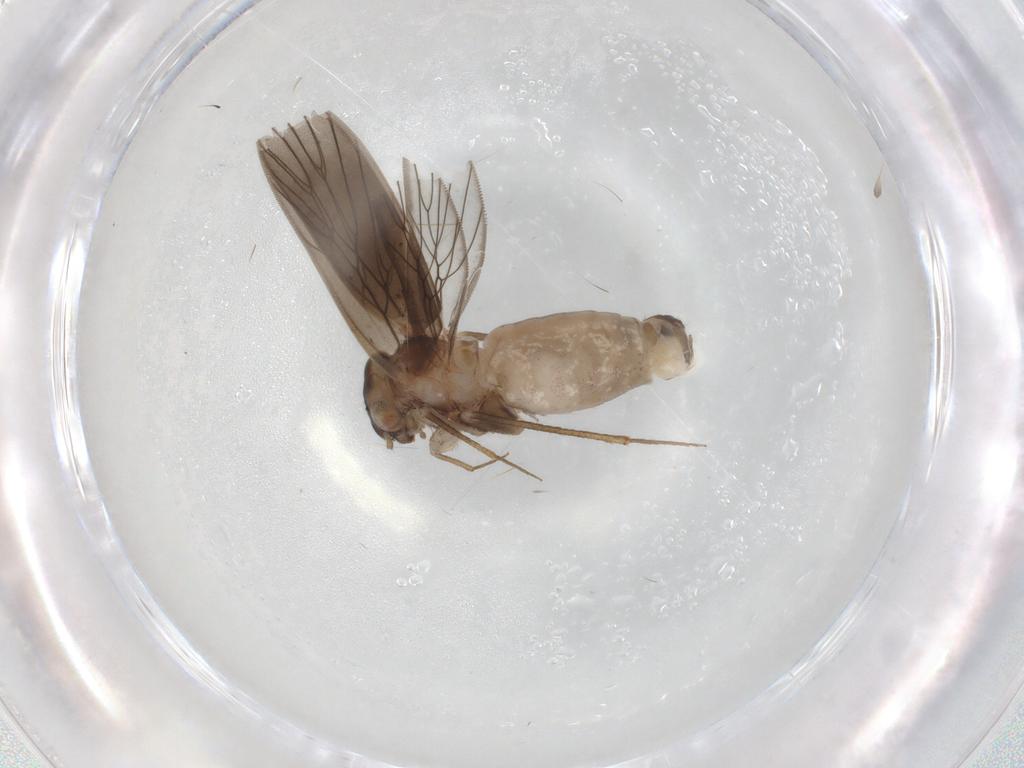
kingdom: Animalia
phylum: Arthropoda
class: Insecta
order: Psocodea
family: Lepidopsocidae
